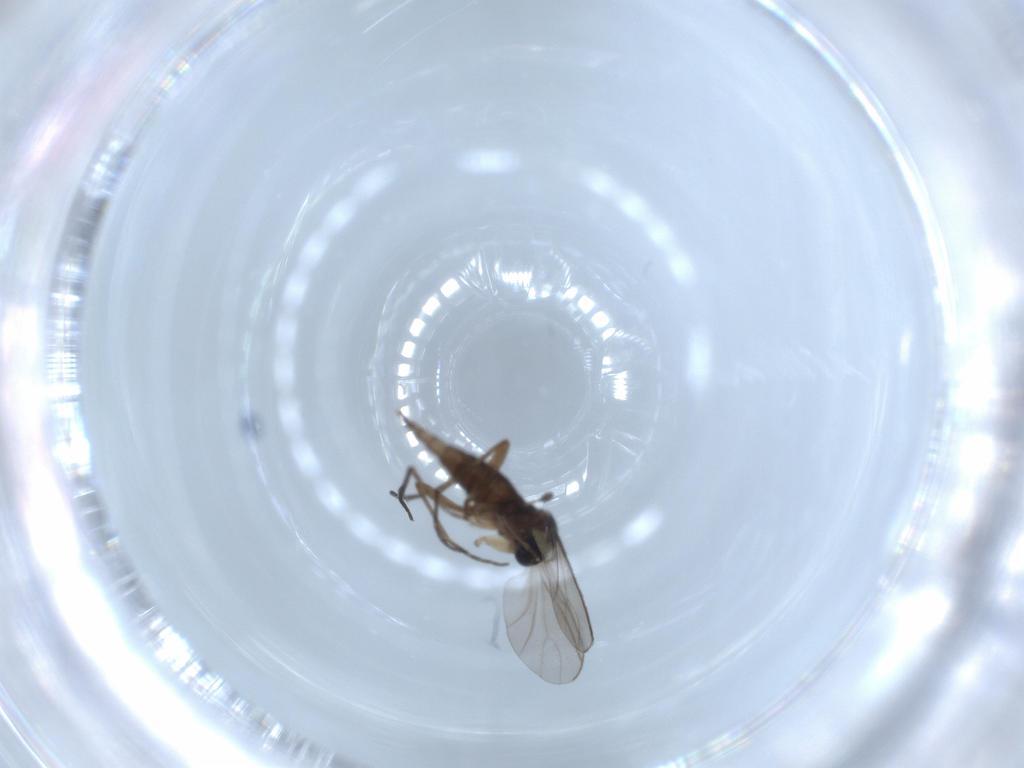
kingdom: Animalia
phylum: Arthropoda
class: Insecta
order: Diptera
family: Sciaridae
